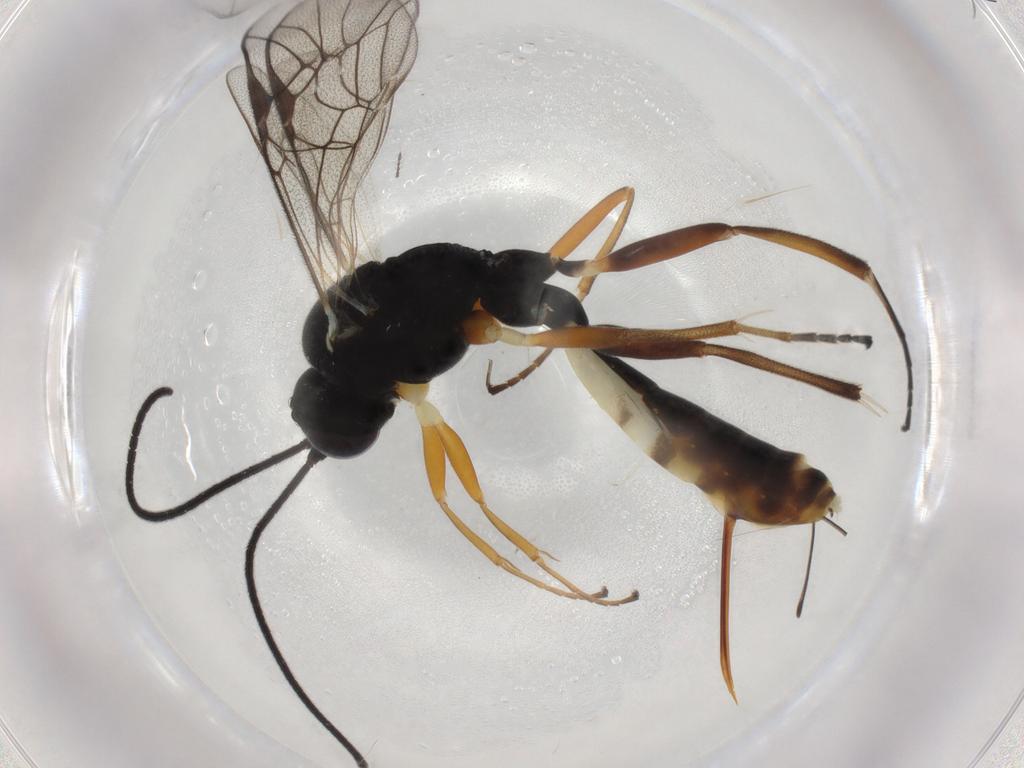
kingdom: Animalia
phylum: Arthropoda
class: Insecta
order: Hymenoptera
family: Ichneumonidae
